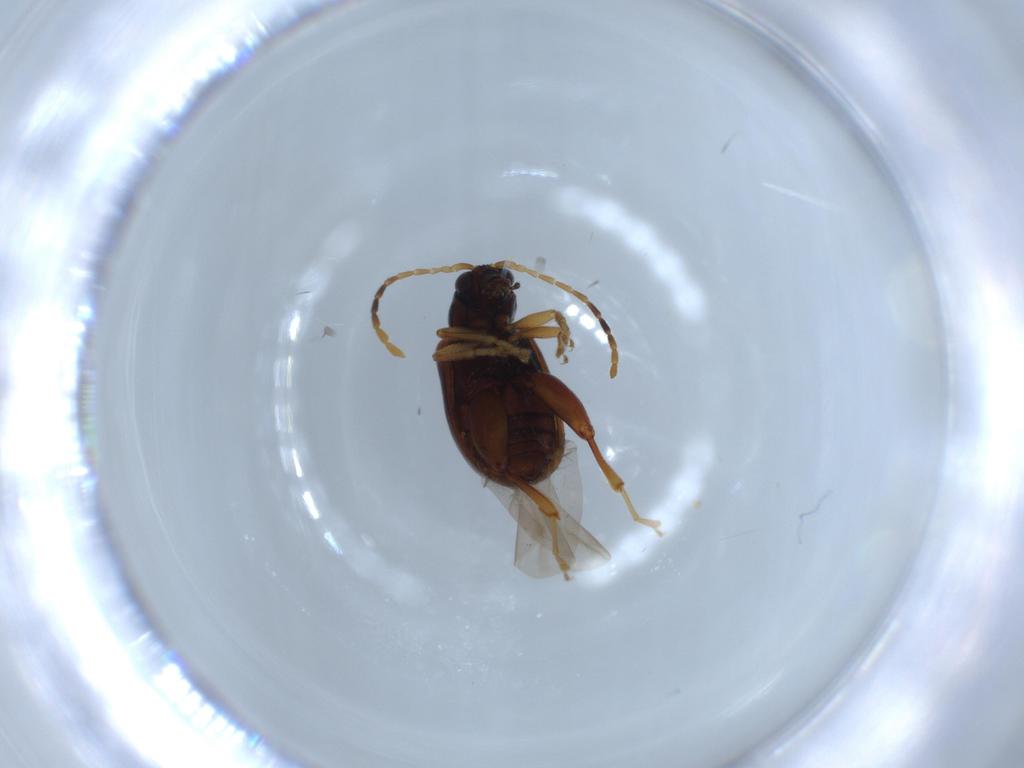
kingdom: Animalia
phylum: Arthropoda
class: Insecta
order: Coleoptera
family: Chrysomelidae
